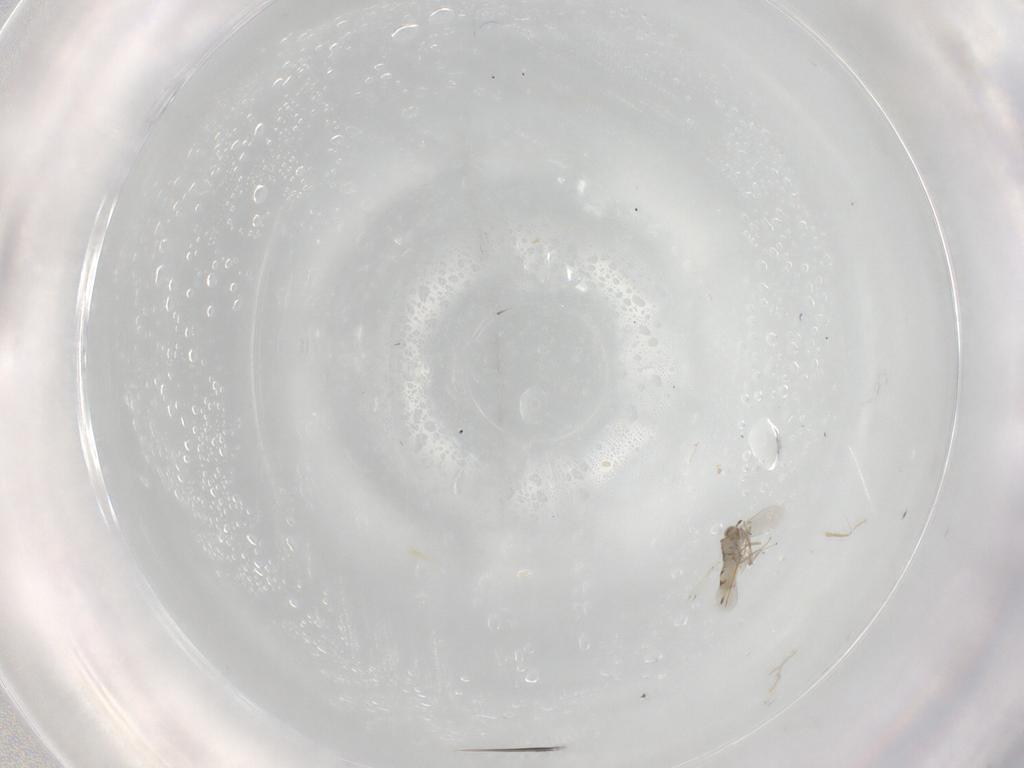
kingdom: Animalia
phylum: Arthropoda
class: Insecta
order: Hymenoptera
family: Aphelinidae
